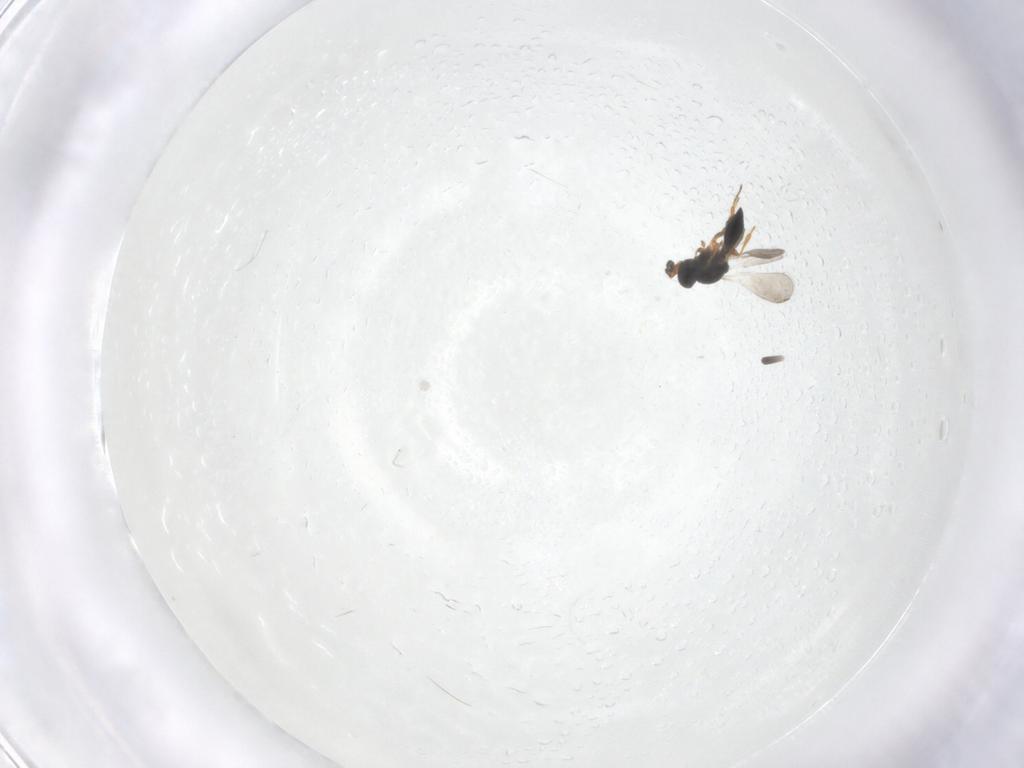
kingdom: Animalia
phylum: Arthropoda
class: Insecta
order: Hymenoptera
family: Platygastridae
